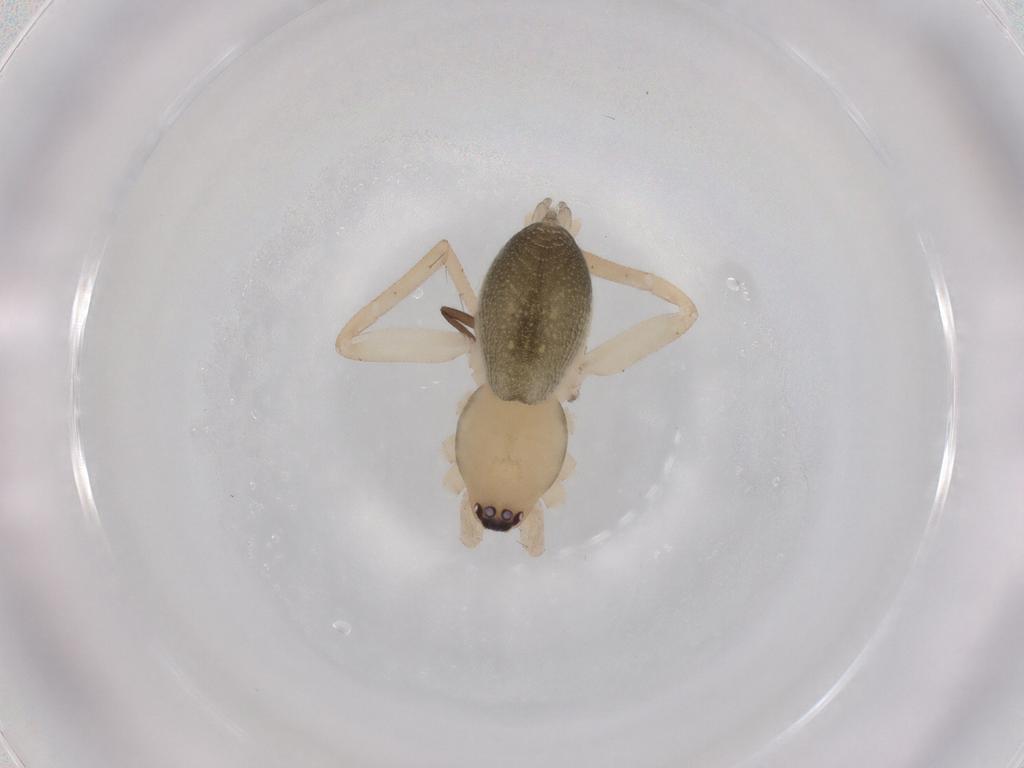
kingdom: Animalia
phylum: Arthropoda
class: Arachnida
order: Araneae
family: Gnaphosidae
